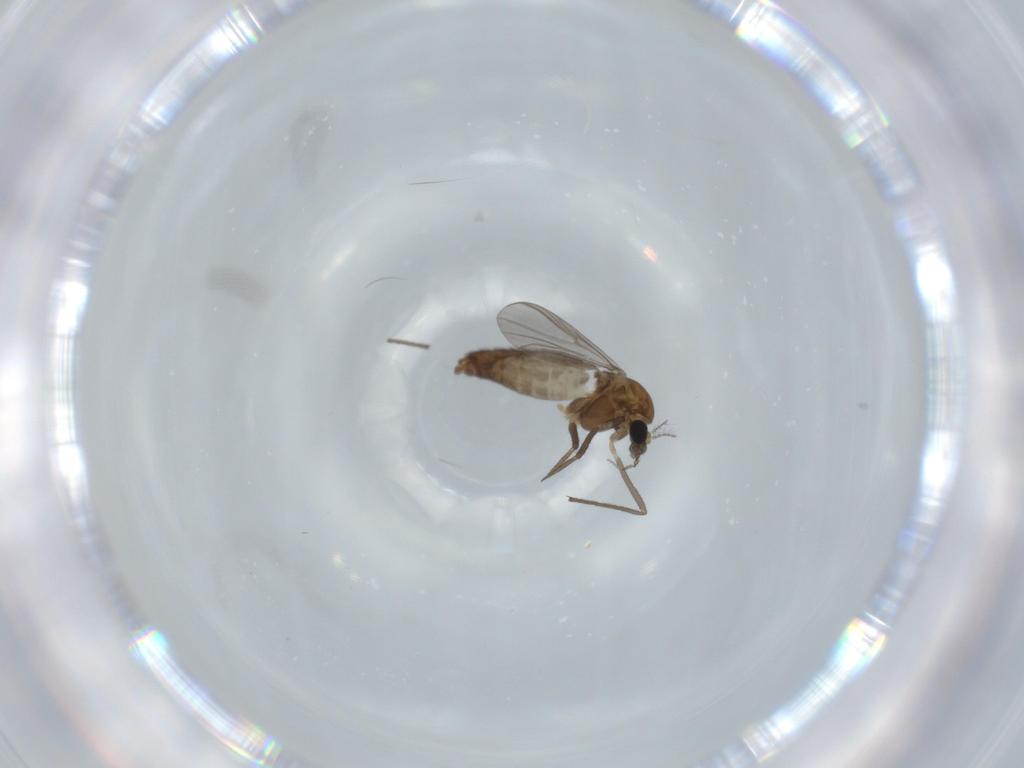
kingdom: Animalia
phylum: Arthropoda
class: Insecta
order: Diptera
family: Chironomidae
